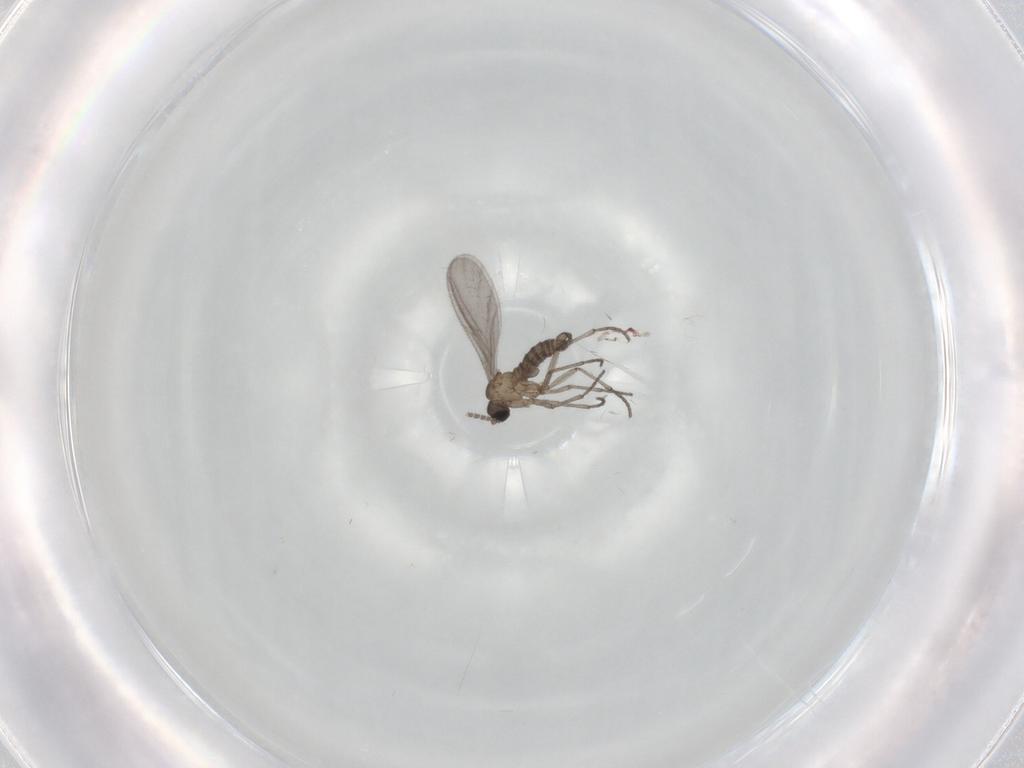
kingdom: Animalia
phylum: Arthropoda
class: Insecta
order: Diptera
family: Sciaridae
